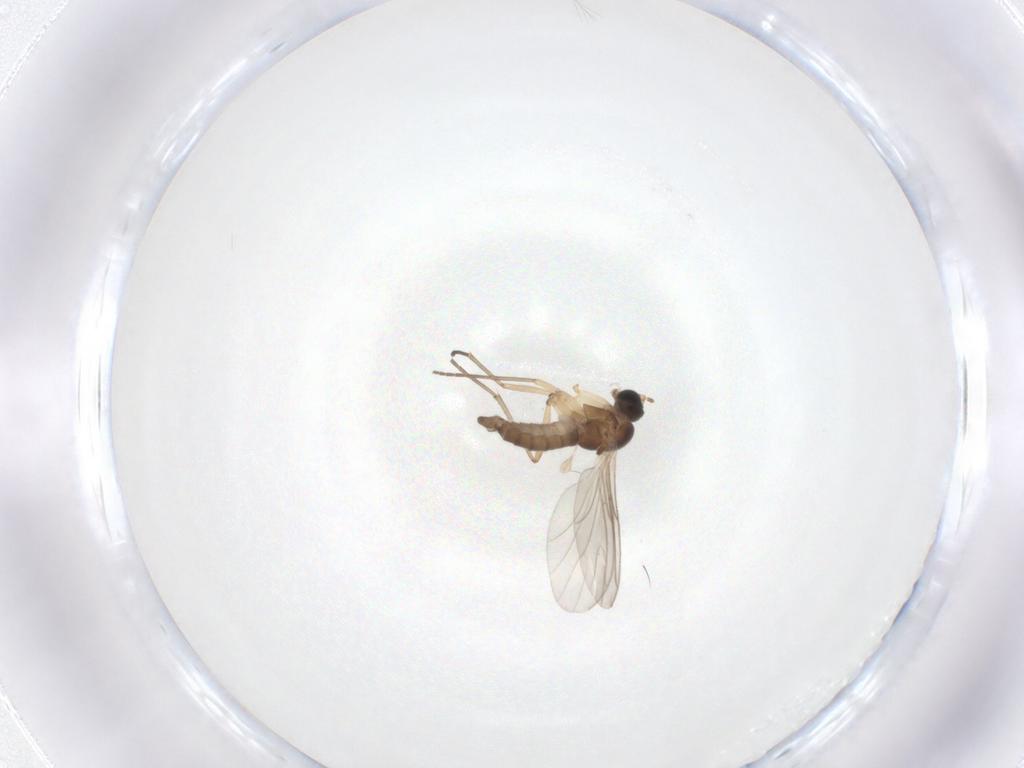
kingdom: Animalia
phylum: Arthropoda
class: Insecta
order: Diptera
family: Sciaridae
